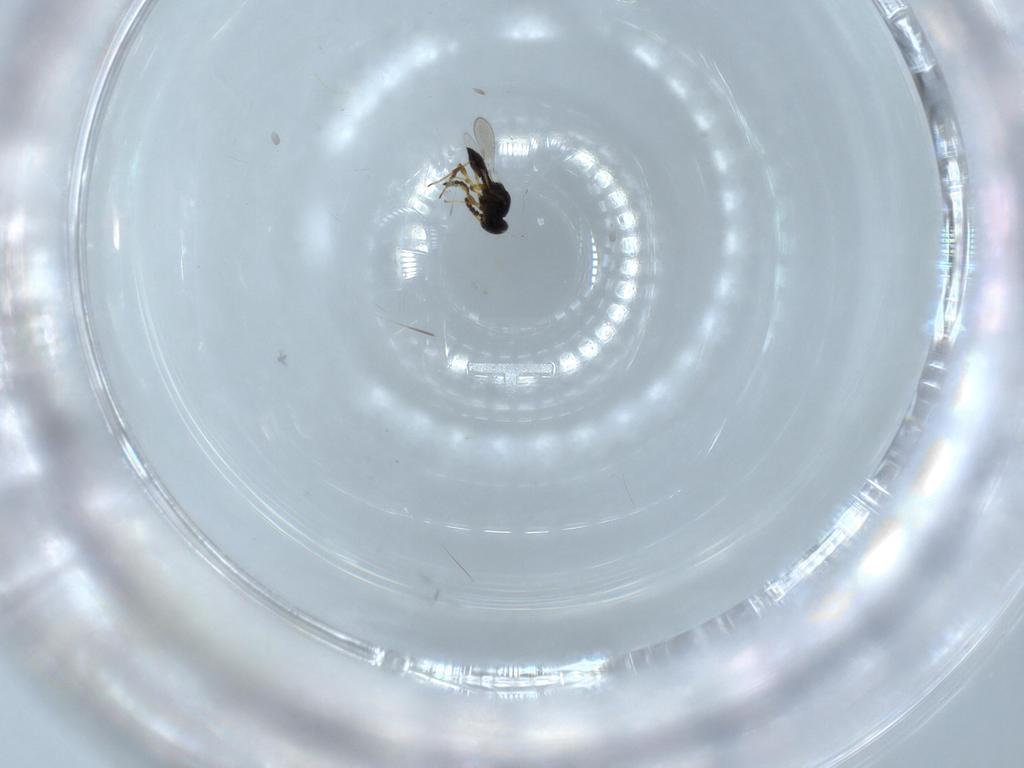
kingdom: Animalia
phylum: Arthropoda
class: Insecta
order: Hymenoptera
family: Platygastridae
